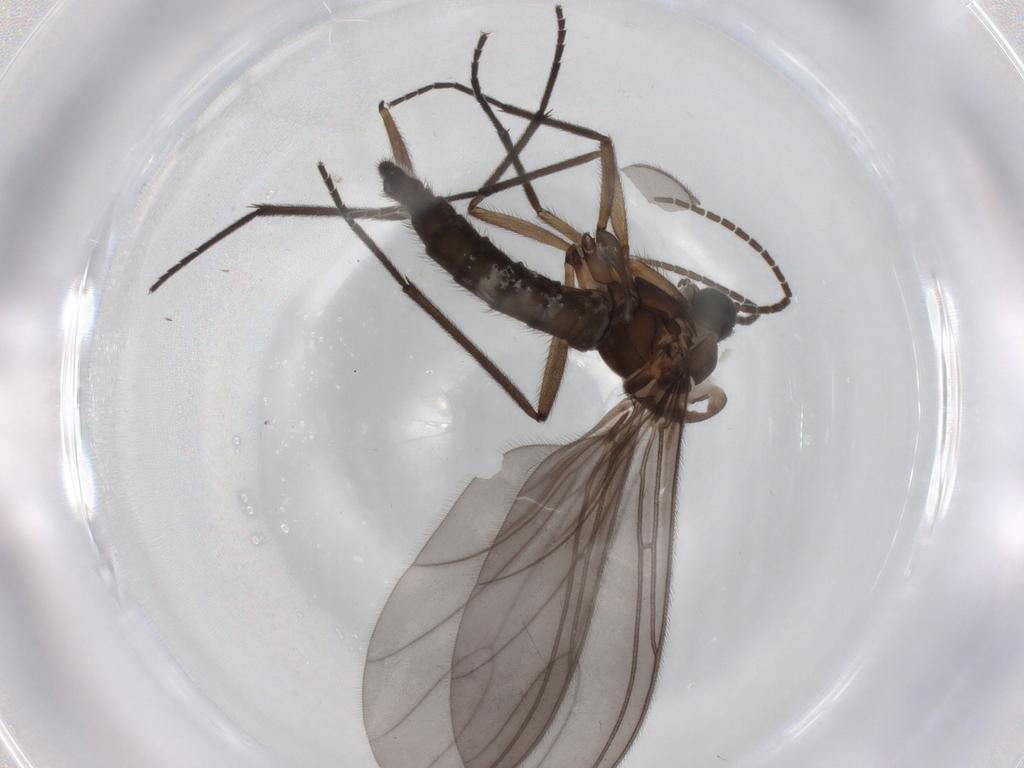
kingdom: Animalia
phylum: Arthropoda
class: Insecta
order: Diptera
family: Sciaridae
